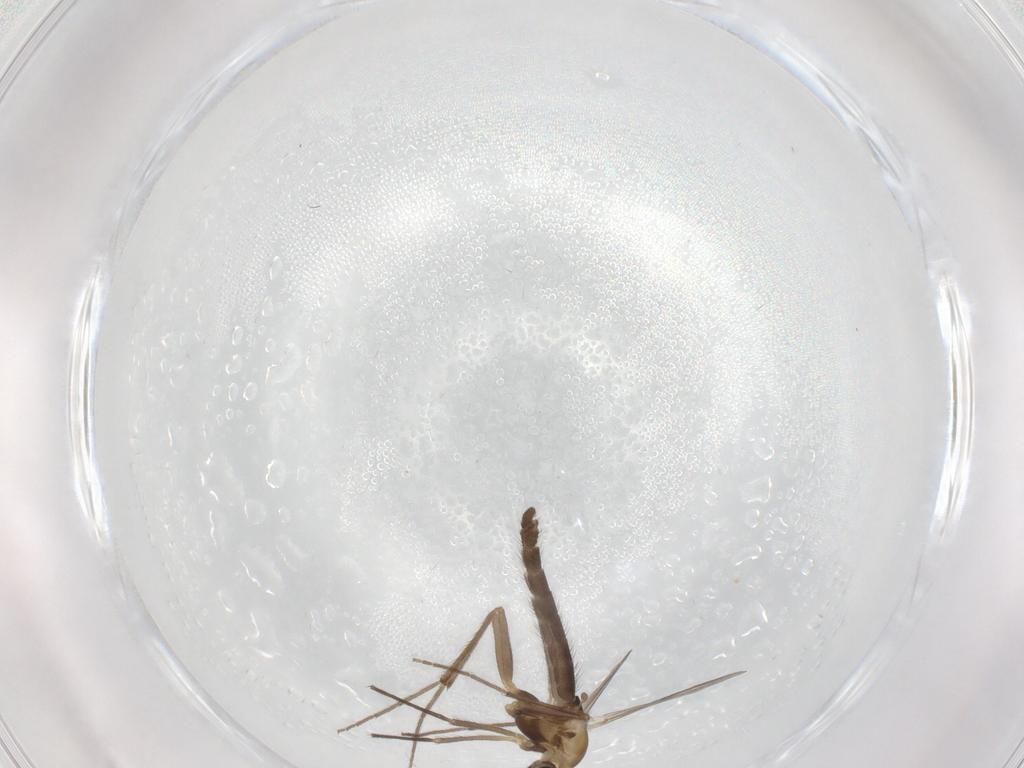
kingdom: Animalia
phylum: Arthropoda
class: Insecta
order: Diptera
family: Chironomidae
